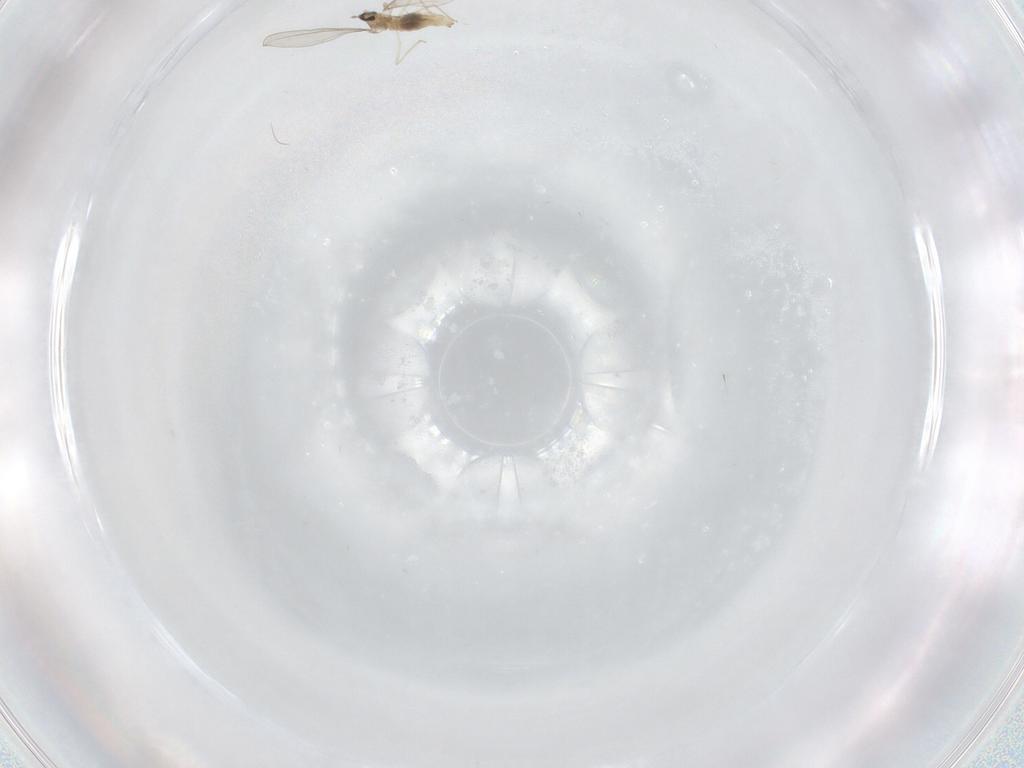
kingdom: Animalia
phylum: Arthropoda
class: Insecta
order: Diptera
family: Cecidomyiidae
